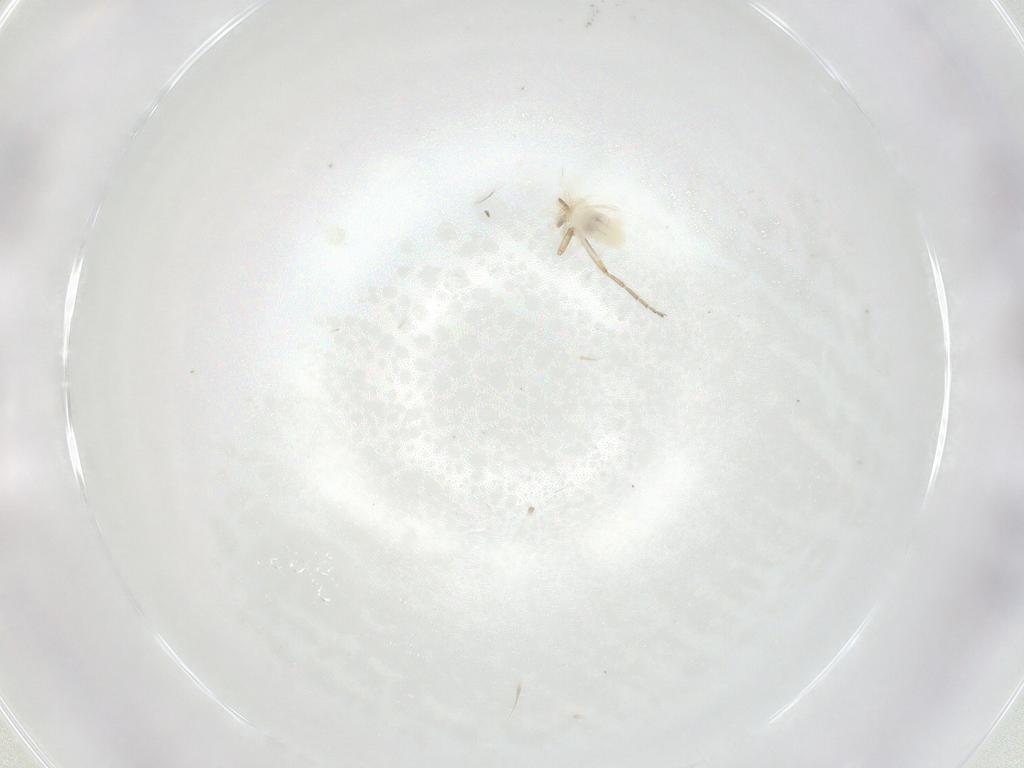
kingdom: Animalia
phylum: Arthropoda
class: Arachnida
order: Trombidiformes
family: Anystidae
